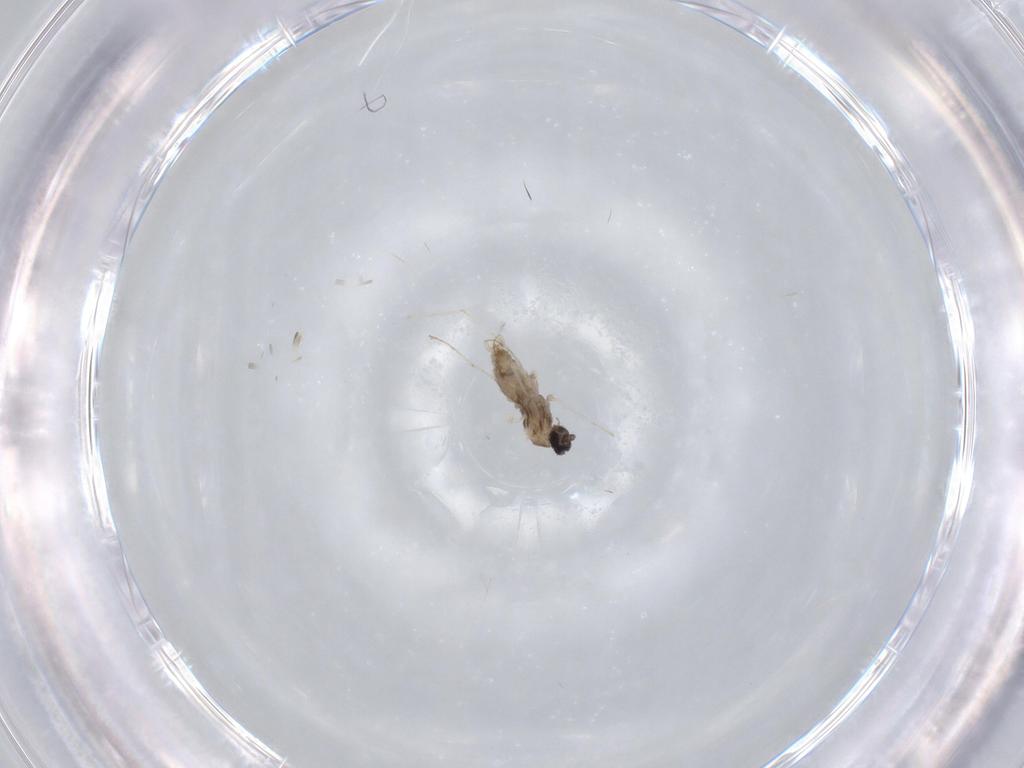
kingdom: Animalia
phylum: Arthropoda
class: Insecta
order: Diptera
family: Cecidomyiidae
